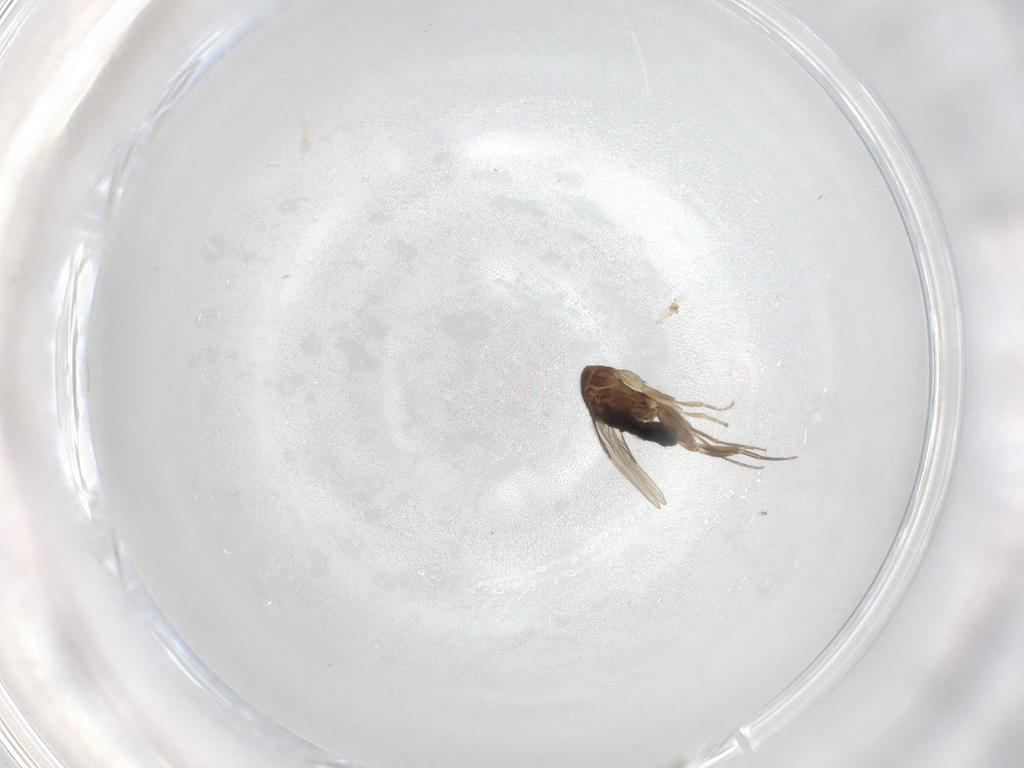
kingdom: Animalia
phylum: Arthropoda
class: Insecta
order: Diptera
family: Phoridae
